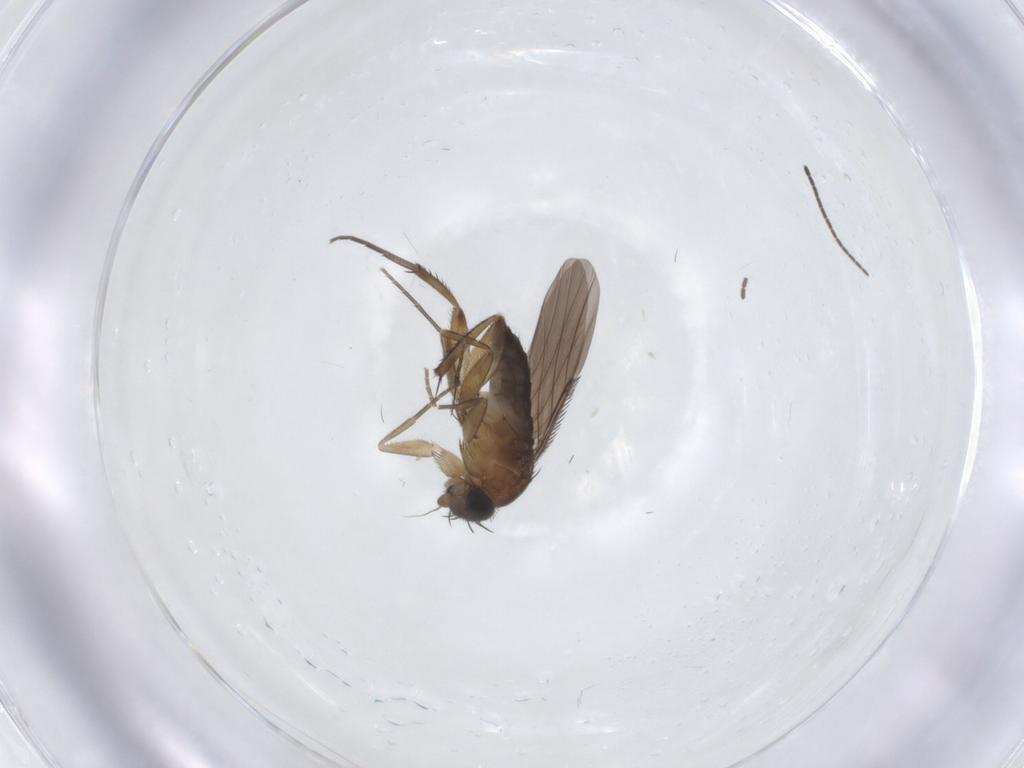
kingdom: Animalia
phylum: Arthropoda
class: Insecta
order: Diptera
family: Phoridae
